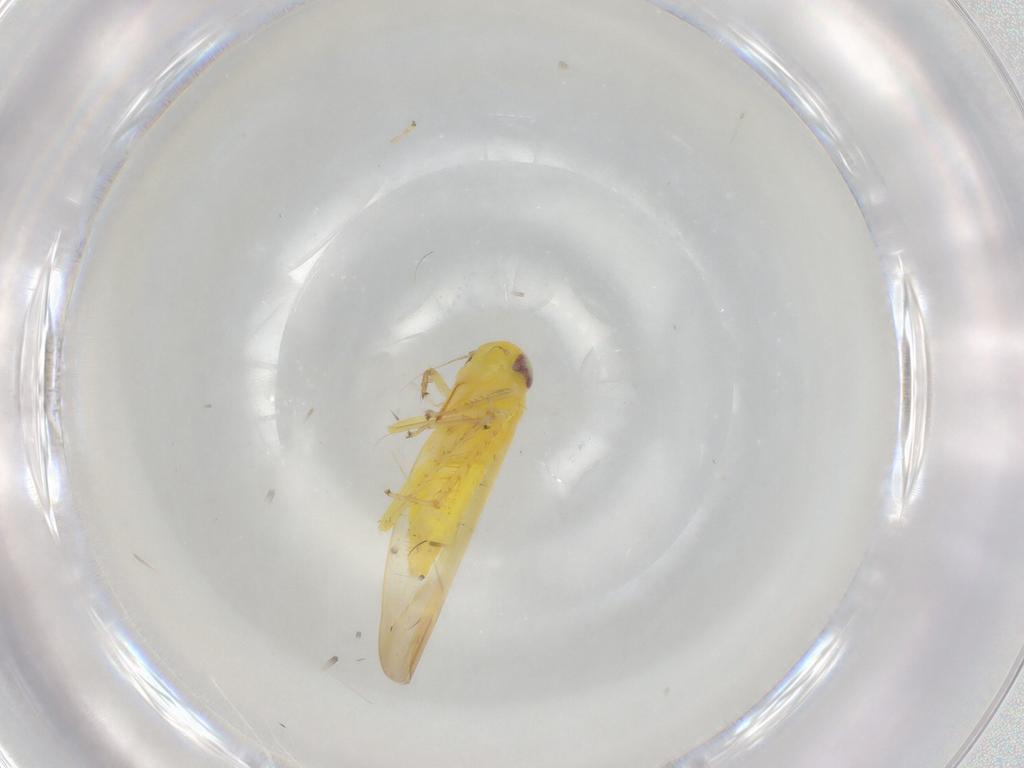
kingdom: Animalia
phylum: Arthropoda
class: Insecta
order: Hemiptera
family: Cicadellidae
